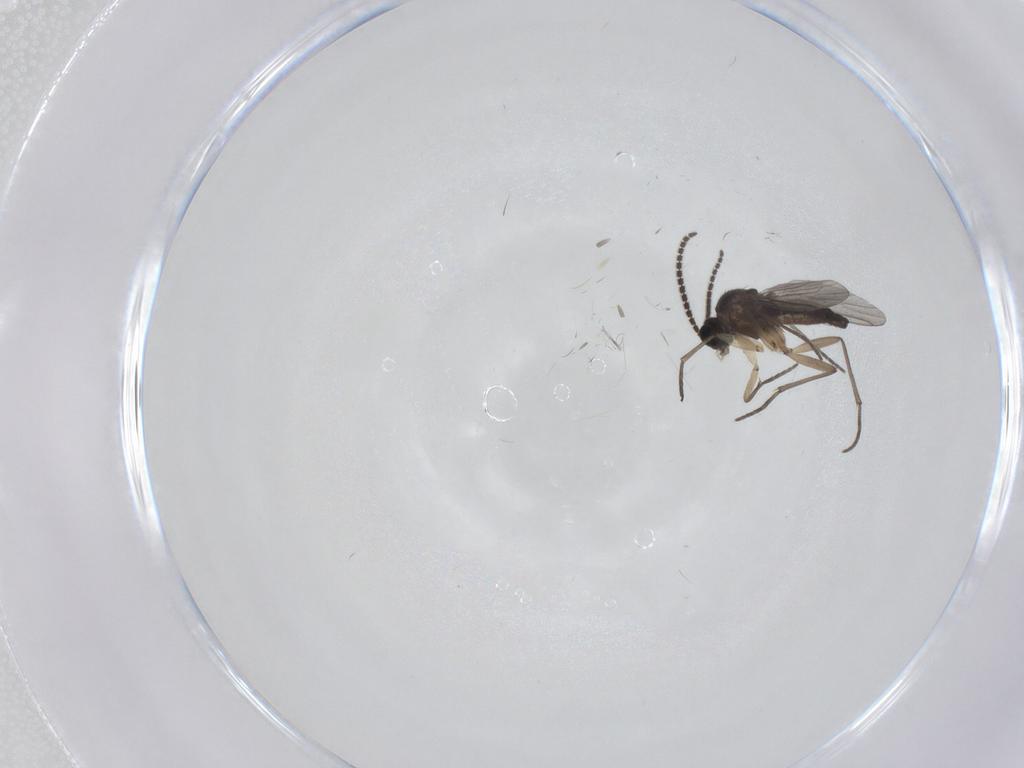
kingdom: Animalia
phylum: Arthropoda
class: Insecta
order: Diptera
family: Sciaridae
